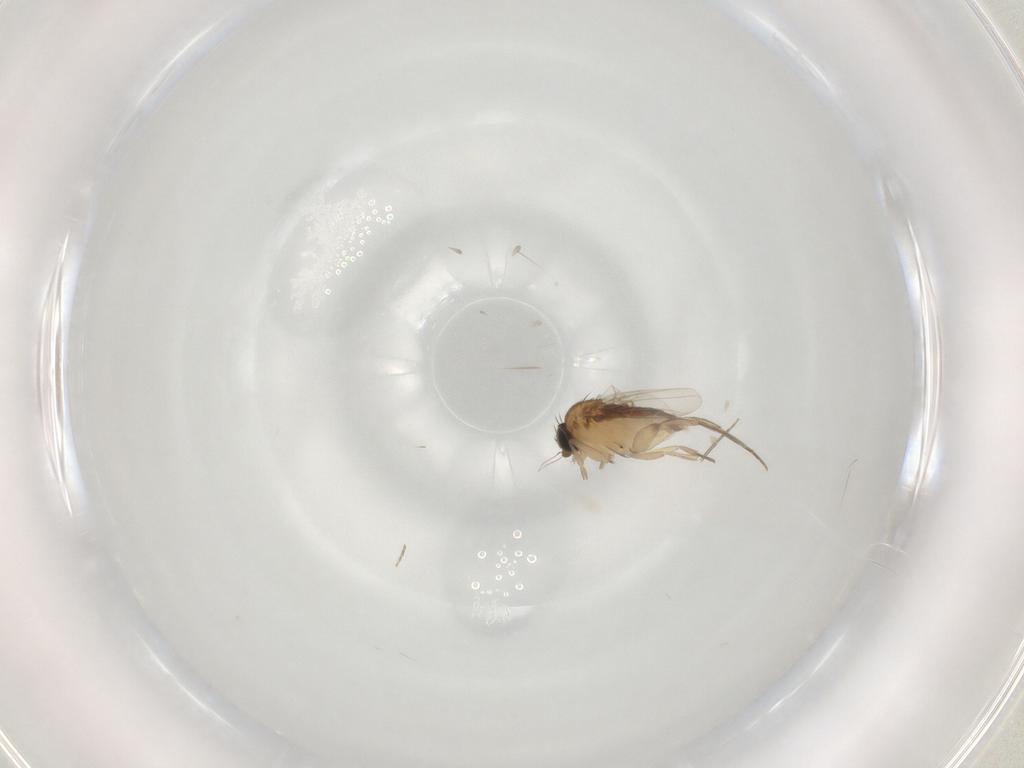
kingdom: Animalia
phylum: Arthropoda
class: Insecta
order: Diptera
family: Phoridae
